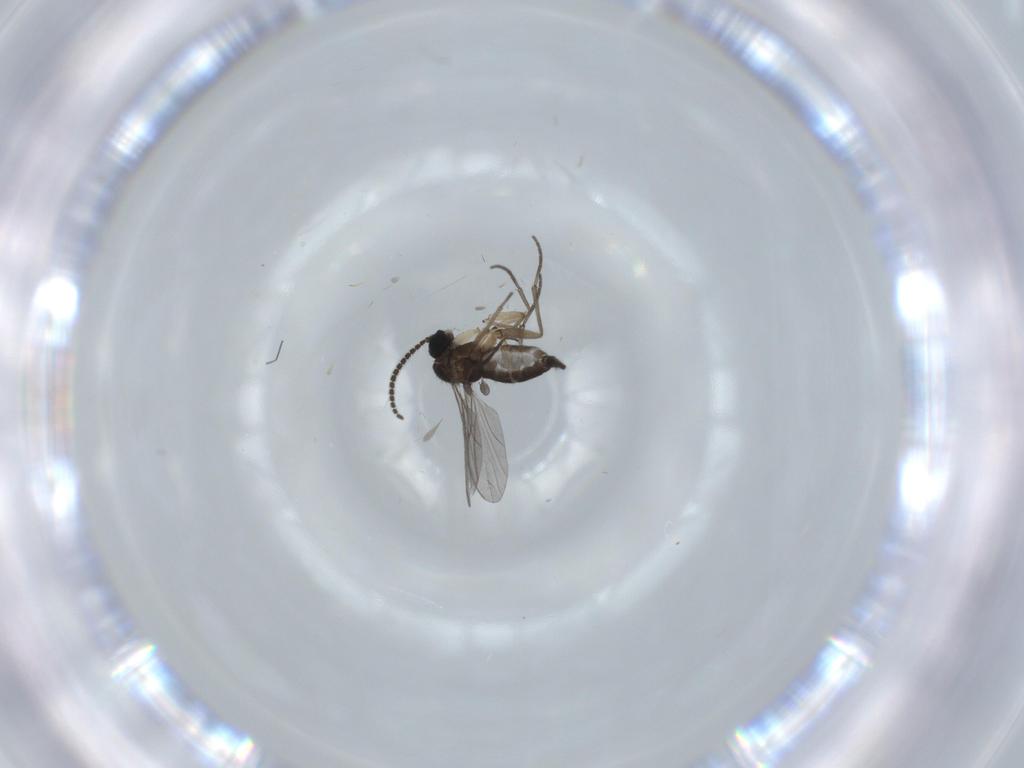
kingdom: Animalia
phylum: Arthropoda
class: Insecta
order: Diptera
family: Sciaridae
